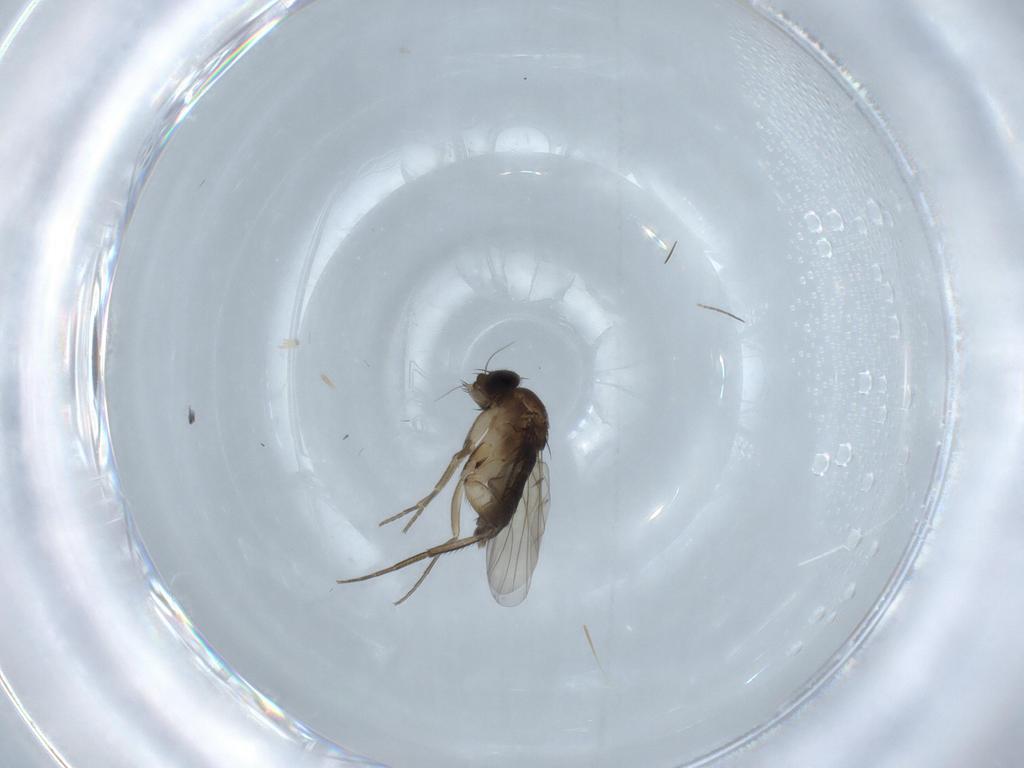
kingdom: Animalia
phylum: Arthropoda
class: Insecta
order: Diptera
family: Phoridae
